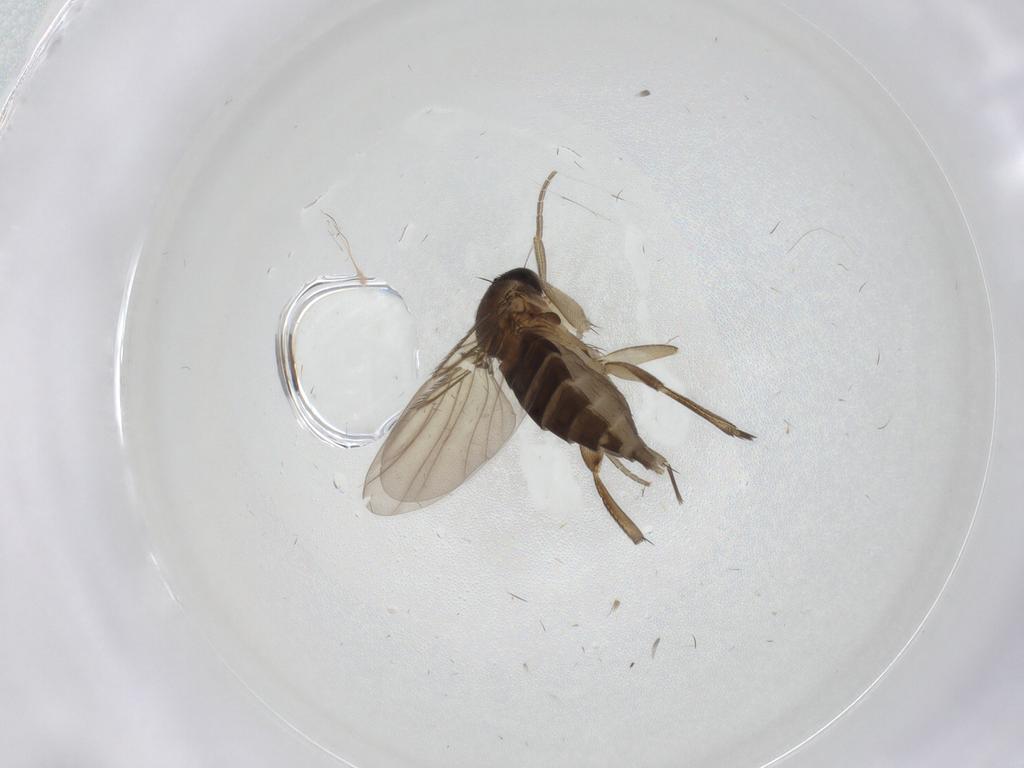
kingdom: Animalia
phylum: Arthropoda
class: Insecta
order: Diptera
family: Phoridae
